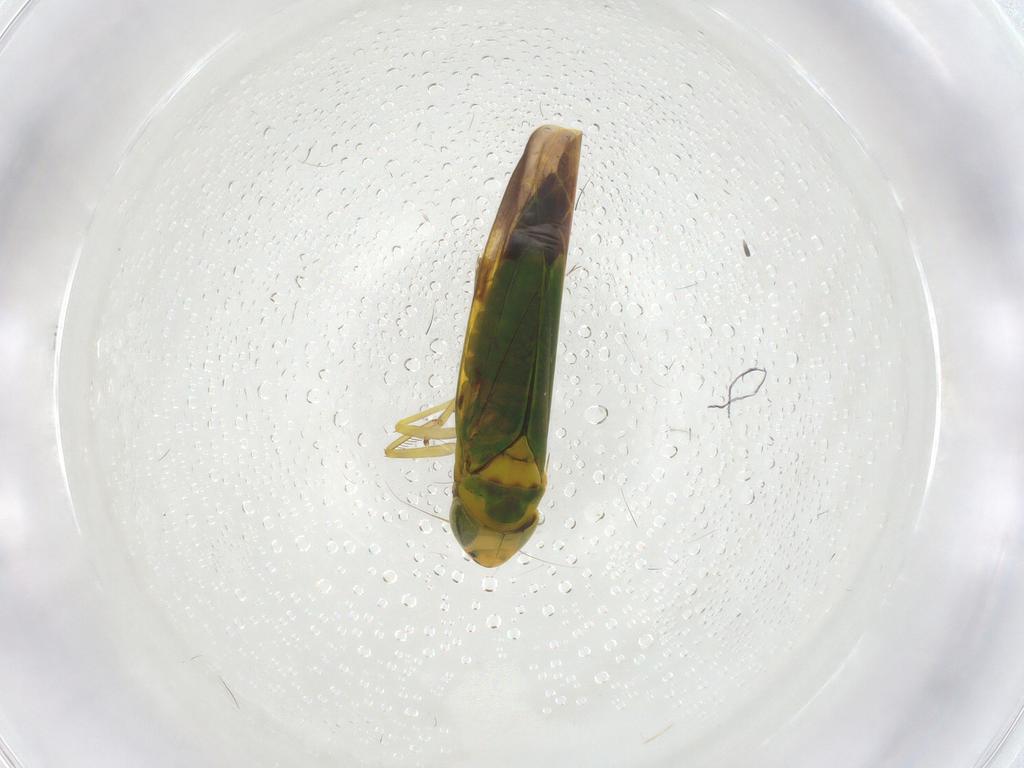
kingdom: Animalia
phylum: Arthropoda
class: Insecta
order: Hemiptera
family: Cicadellidae
